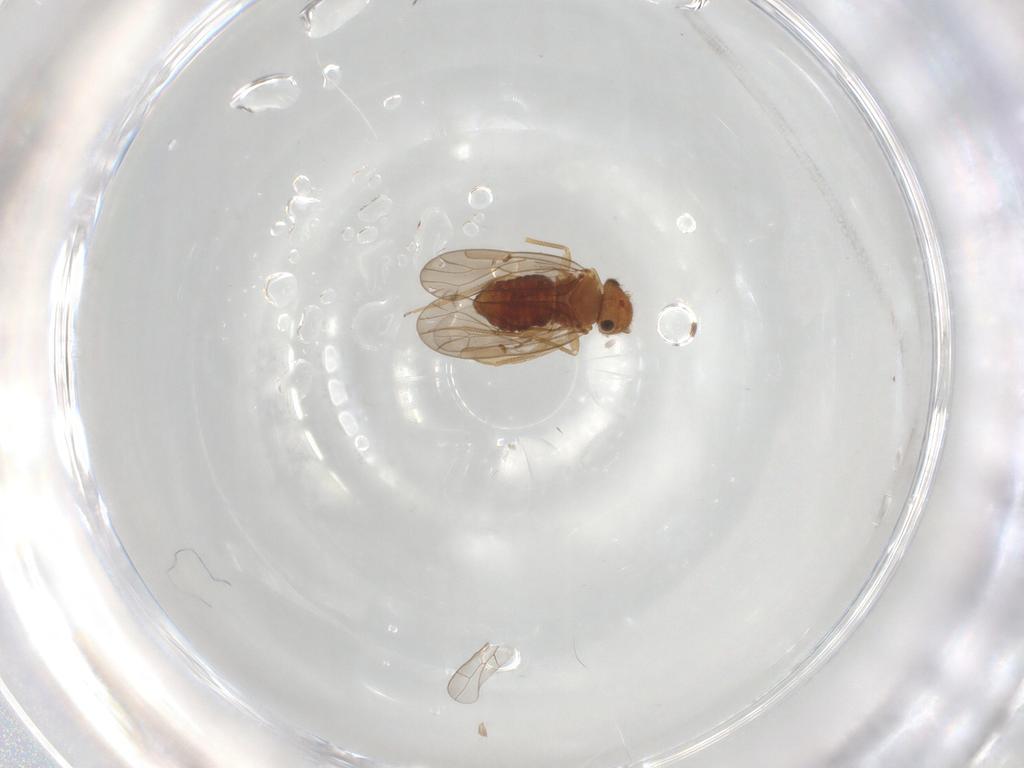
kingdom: Animalia
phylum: Arthropoda
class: Insecta
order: Psocodea
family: Ectopsocidae
